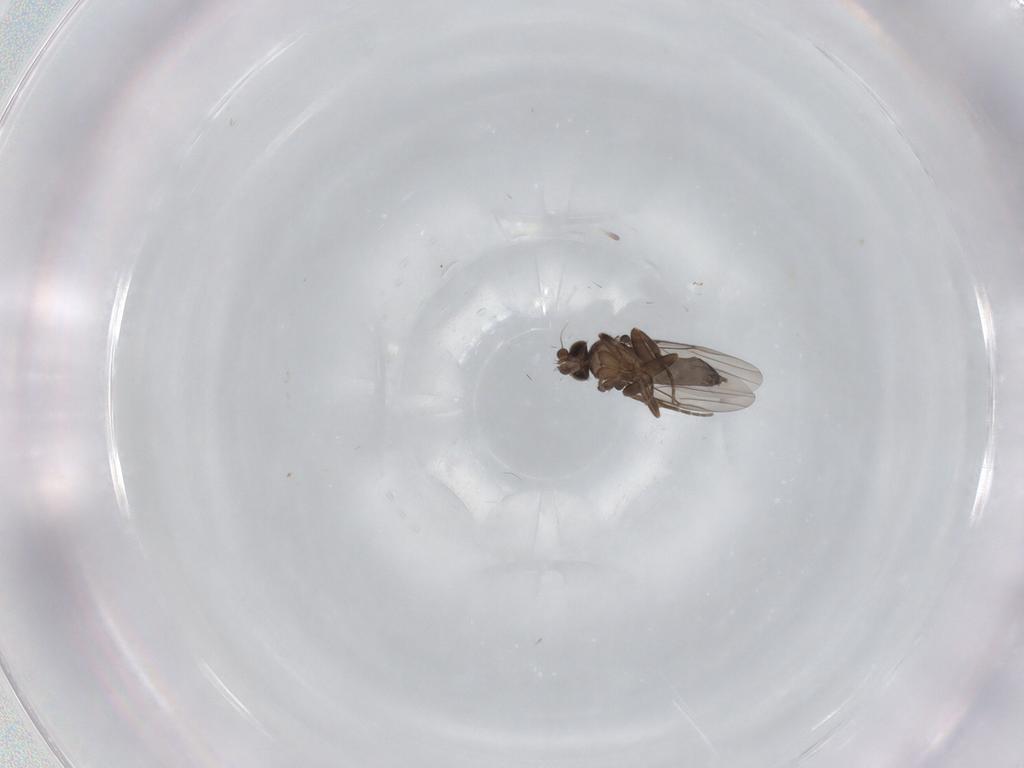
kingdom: Animalia
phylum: Arthropoda
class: Insecta
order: Diptera
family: Phoridae
